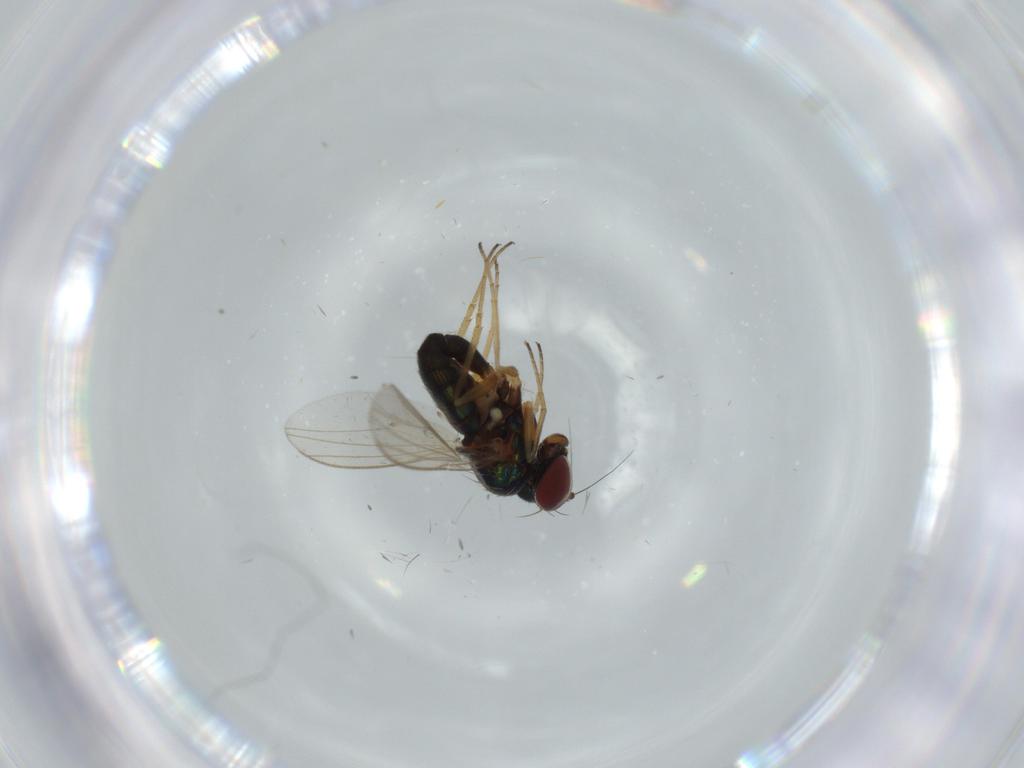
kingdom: Animalia
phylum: Arthropoda
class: Insecta
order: Diptera
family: Dolichopodidae
